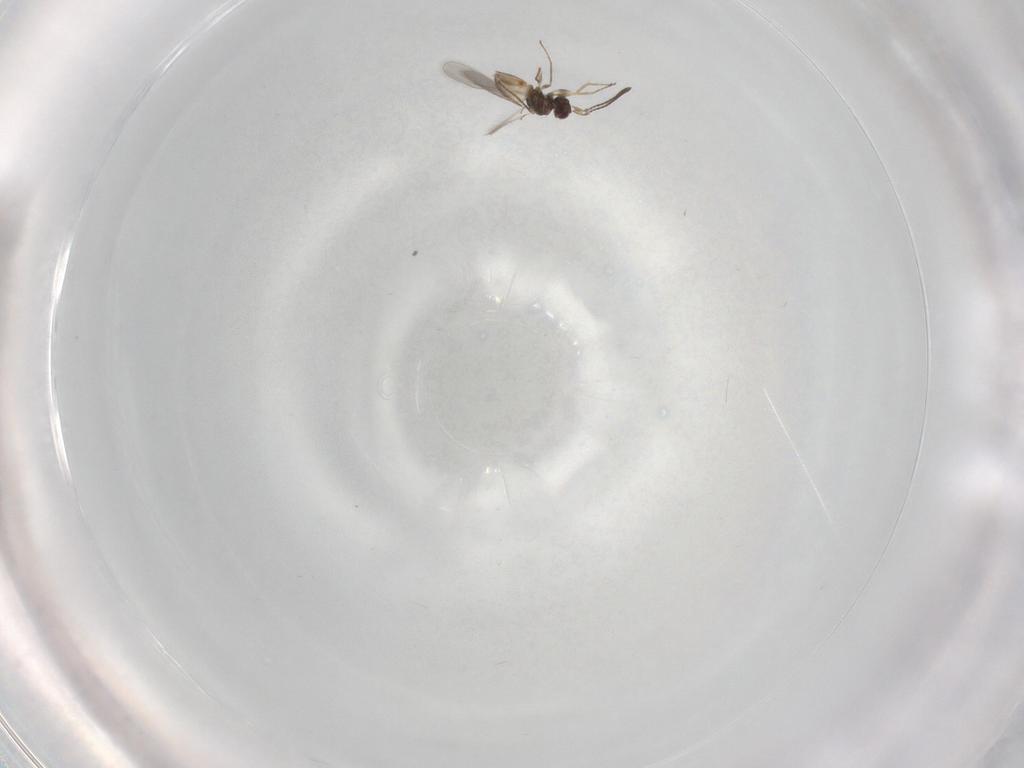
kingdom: Animalia
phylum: Arthropoda
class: Insecta
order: Hymenoptera
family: Mymaridae
